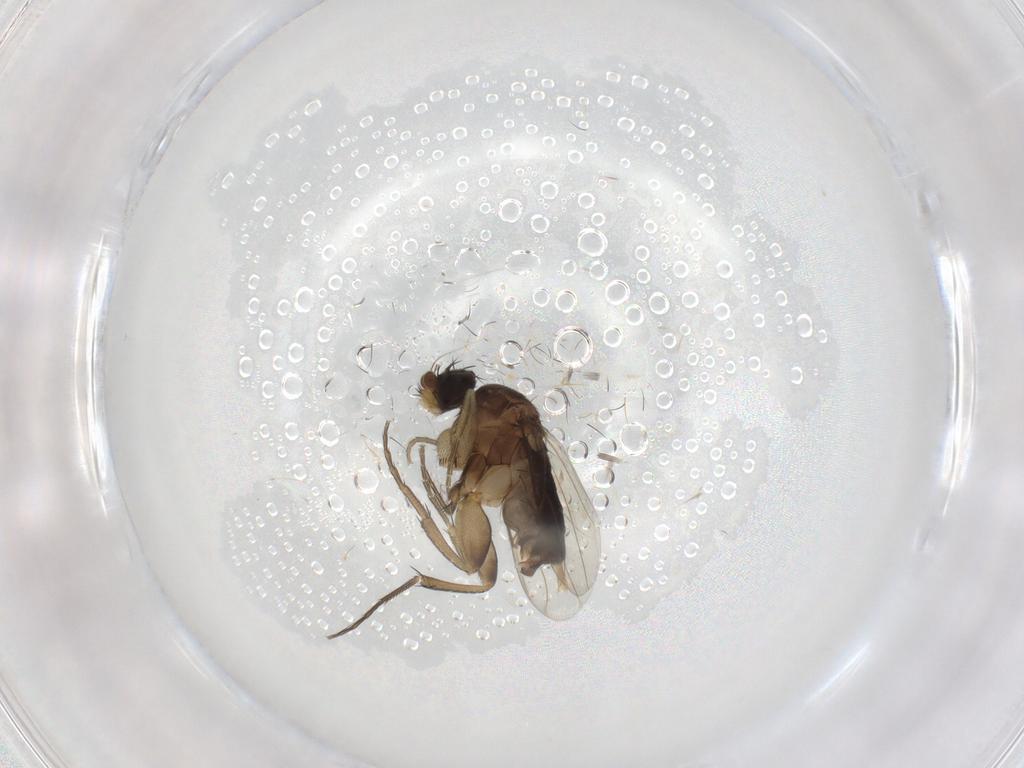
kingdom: Animalia
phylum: Arthropoda
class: Insecta
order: Diptera
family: Phoridae
